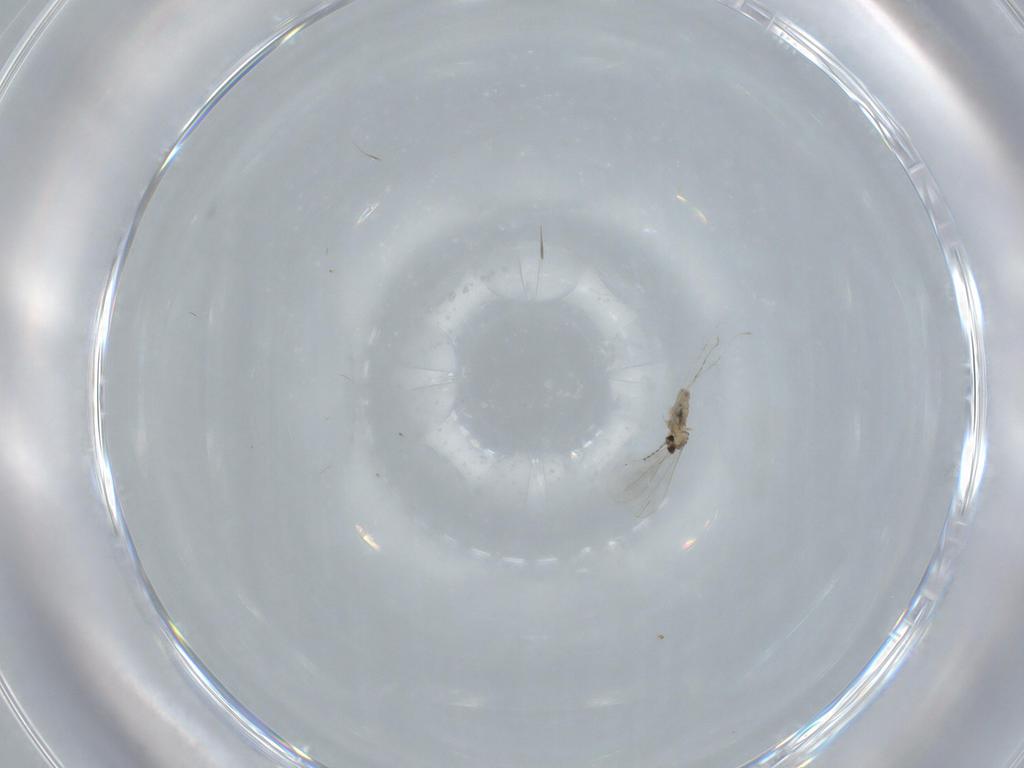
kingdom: Animalia
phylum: Arthropoda
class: Insecta
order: Diptera
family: Cecidomyiidae
